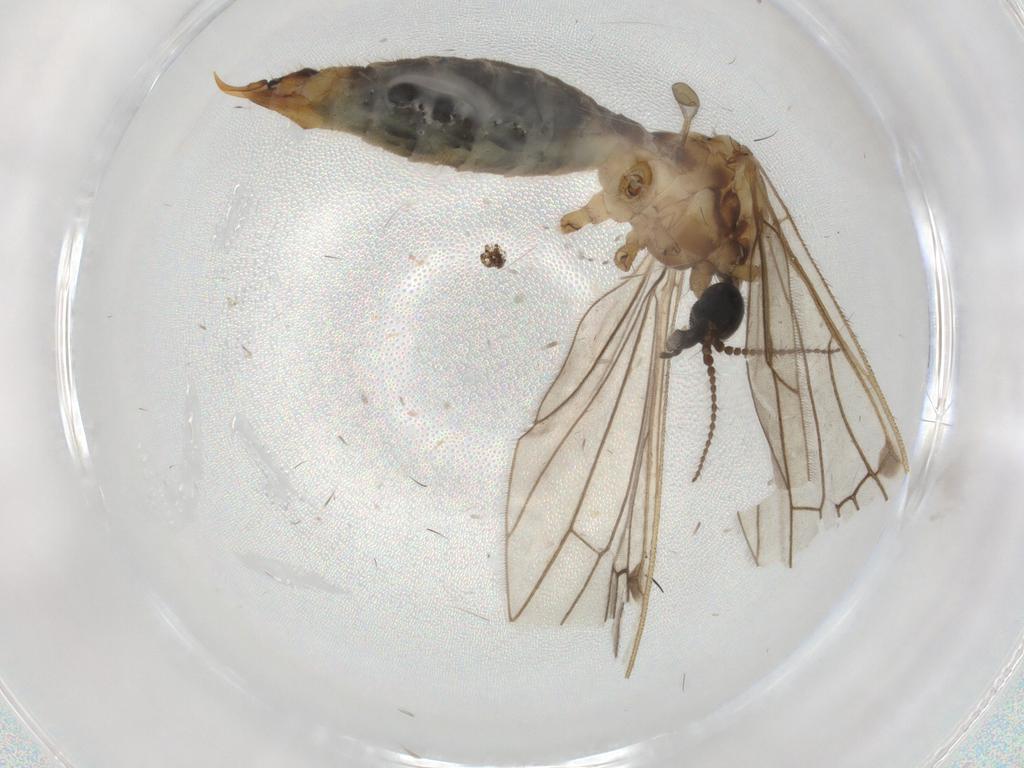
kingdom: Animalia
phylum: Arthropoda
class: Insecta
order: Diptera
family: Limoniidae
